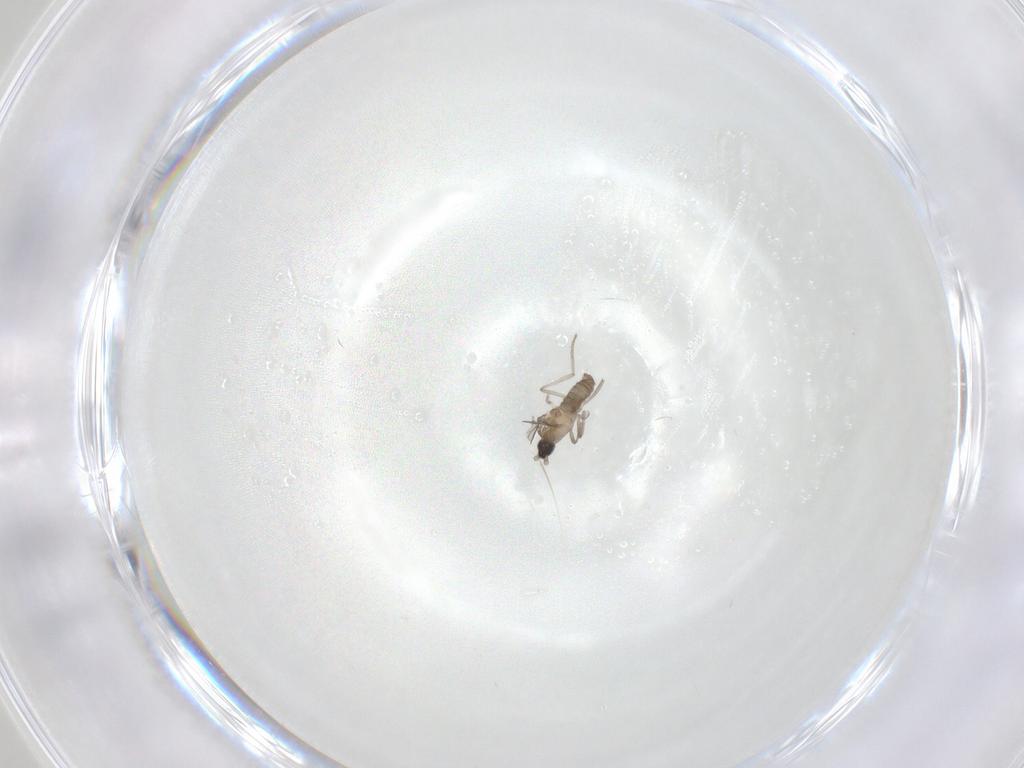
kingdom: Animalia
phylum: Arthropoda
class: Insecta
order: Diptera
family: Cecidomyiidae
